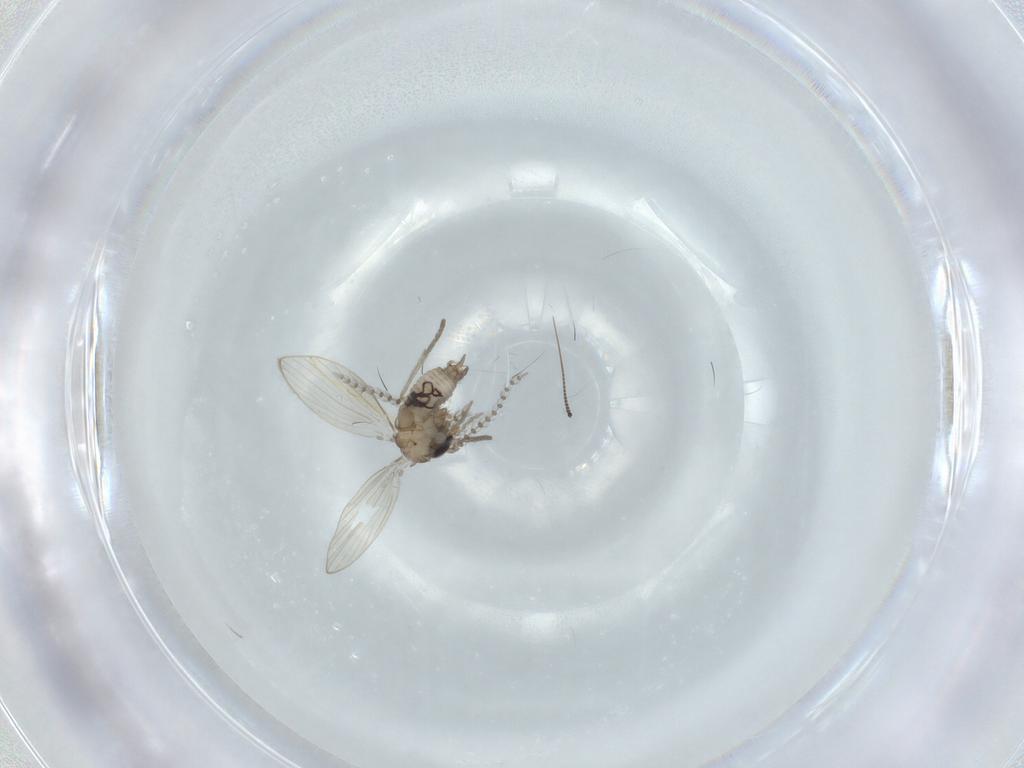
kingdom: Animalia
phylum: Arthropoda
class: Insecta
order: Diptera
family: Psychodidae
